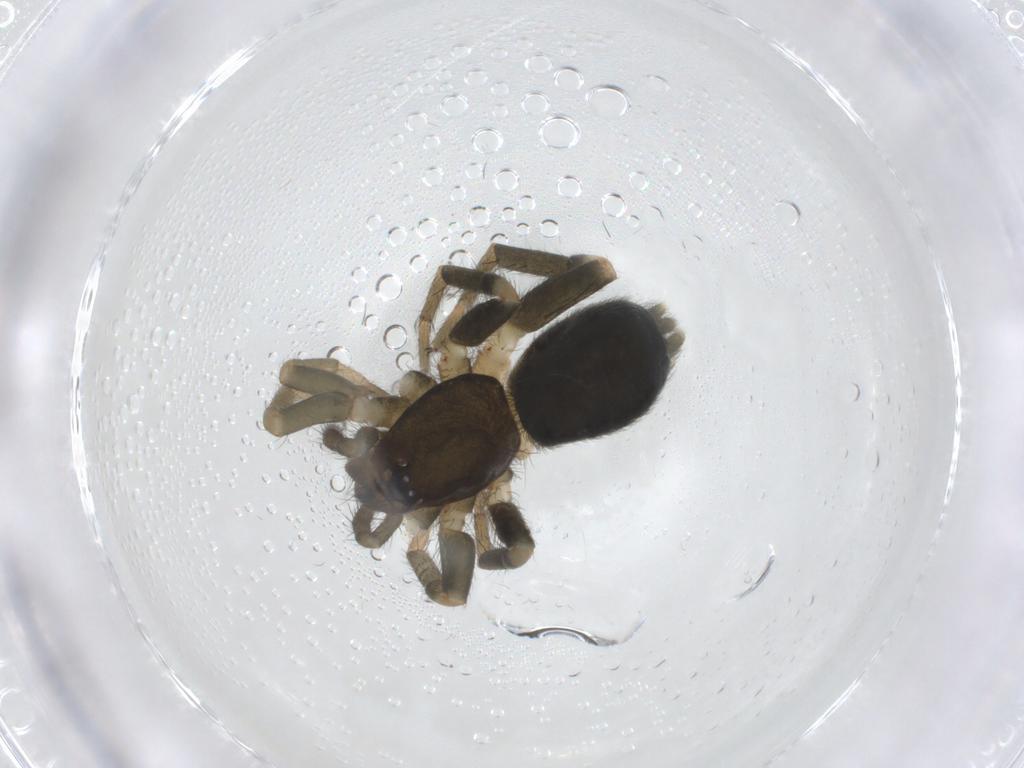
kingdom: Animalia
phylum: Arthropoda
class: Arachnida
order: Araneae
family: Gnaphosidae
